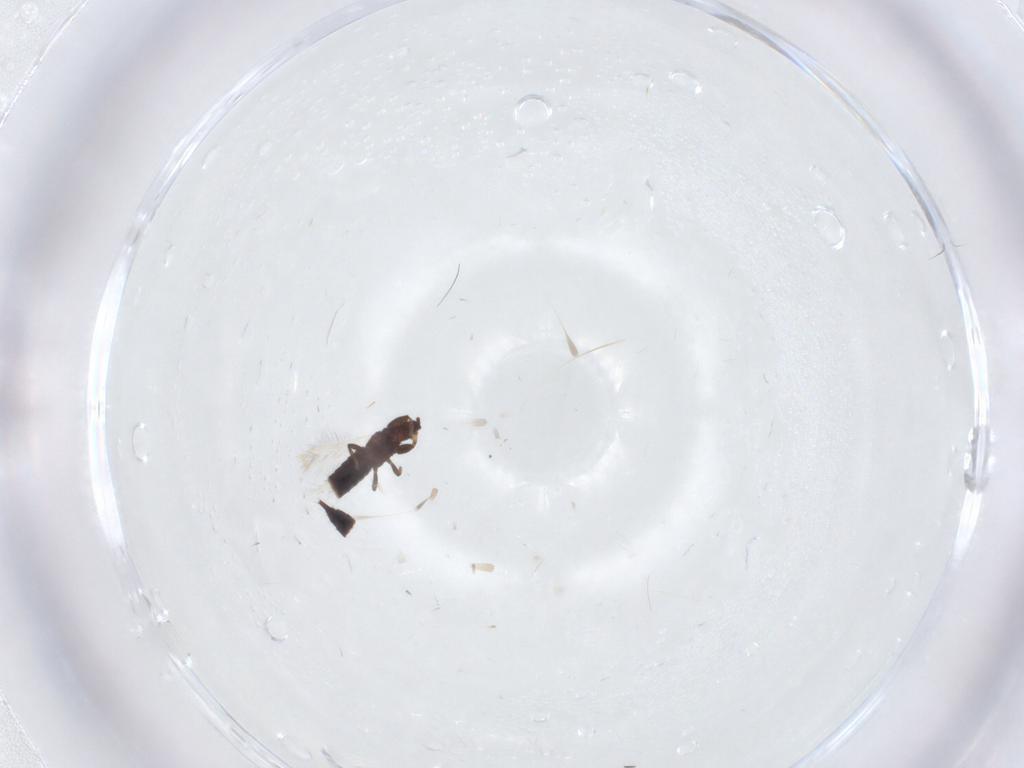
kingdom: Animalia
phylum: Arthropoda
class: Insecta
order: Thysanoptera
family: Phlaeothripidae
